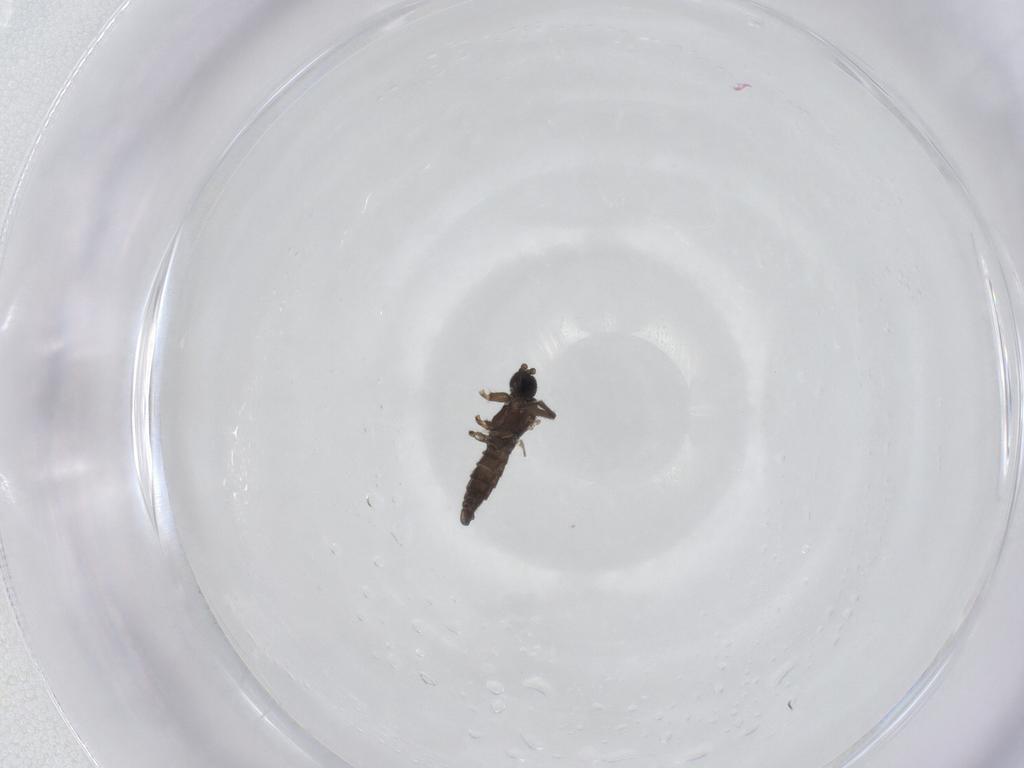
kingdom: Animalia
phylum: Arthropoda
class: Insecta
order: Diptera
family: Sciaridae
